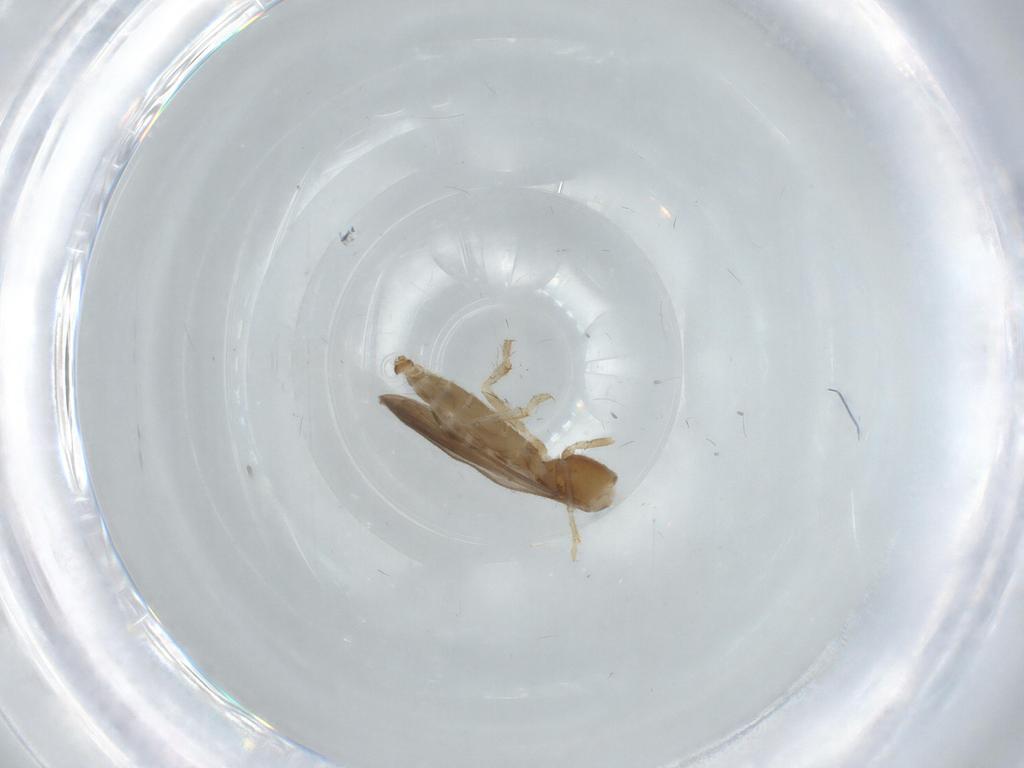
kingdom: Animalia
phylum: Arthropoda
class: Insecta
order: Hemiptera
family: Enicocephalidae
